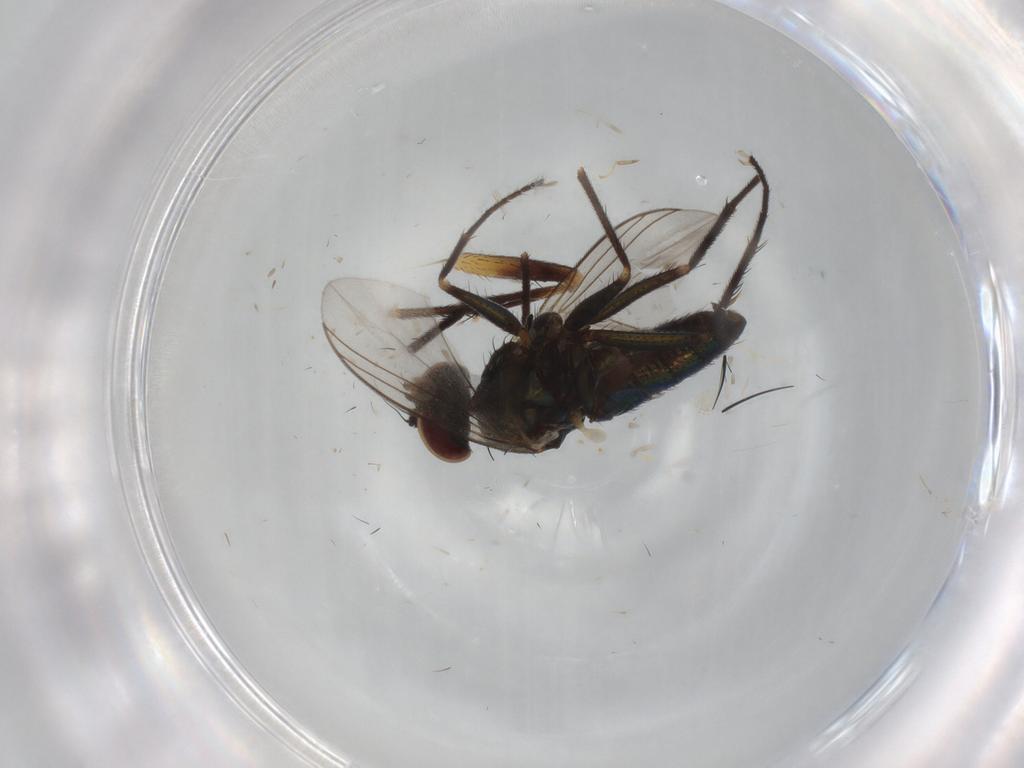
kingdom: Animalia
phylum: Arthropoda
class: Insecta
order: Diptera
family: Dolichopodidae
